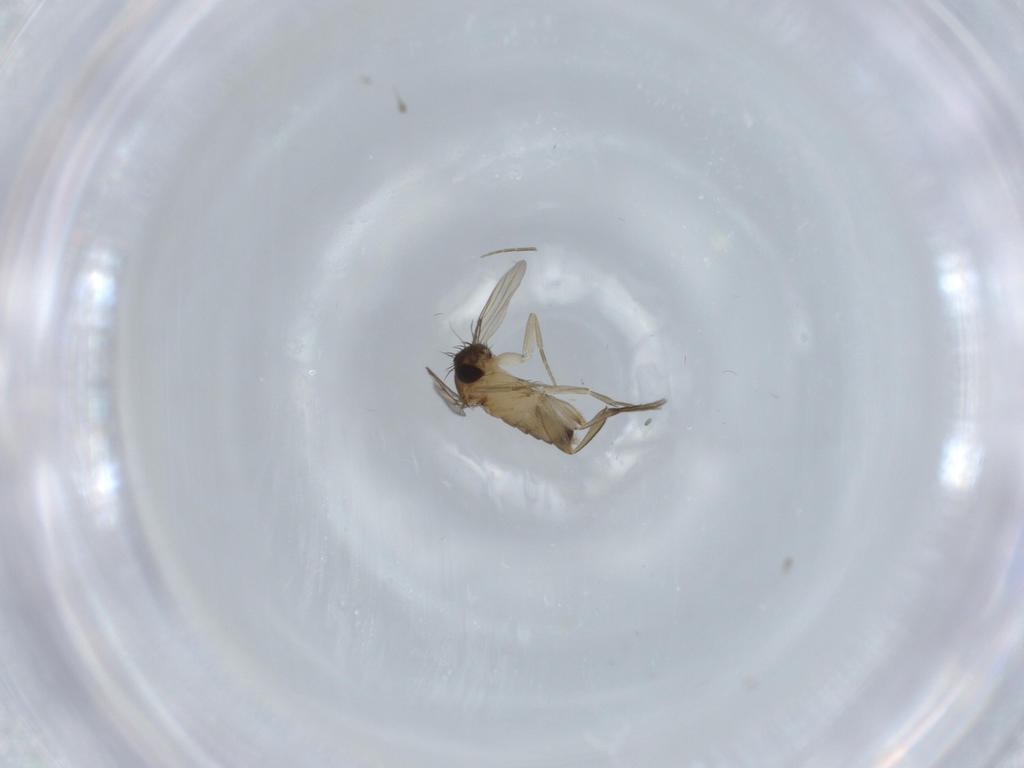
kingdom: Animalia
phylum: Arthropoda
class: Insecta
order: Diptera
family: Phoridae
